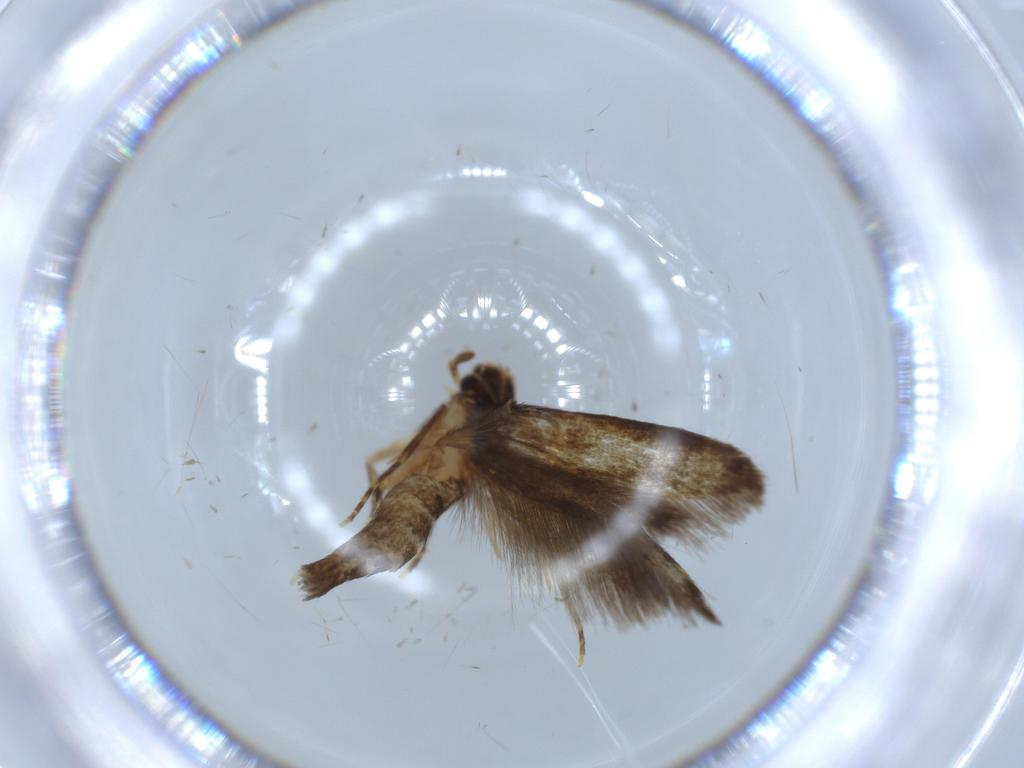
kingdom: Animalia
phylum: Arthropoda
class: Insecta
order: Lepidoptera
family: Tineidae
